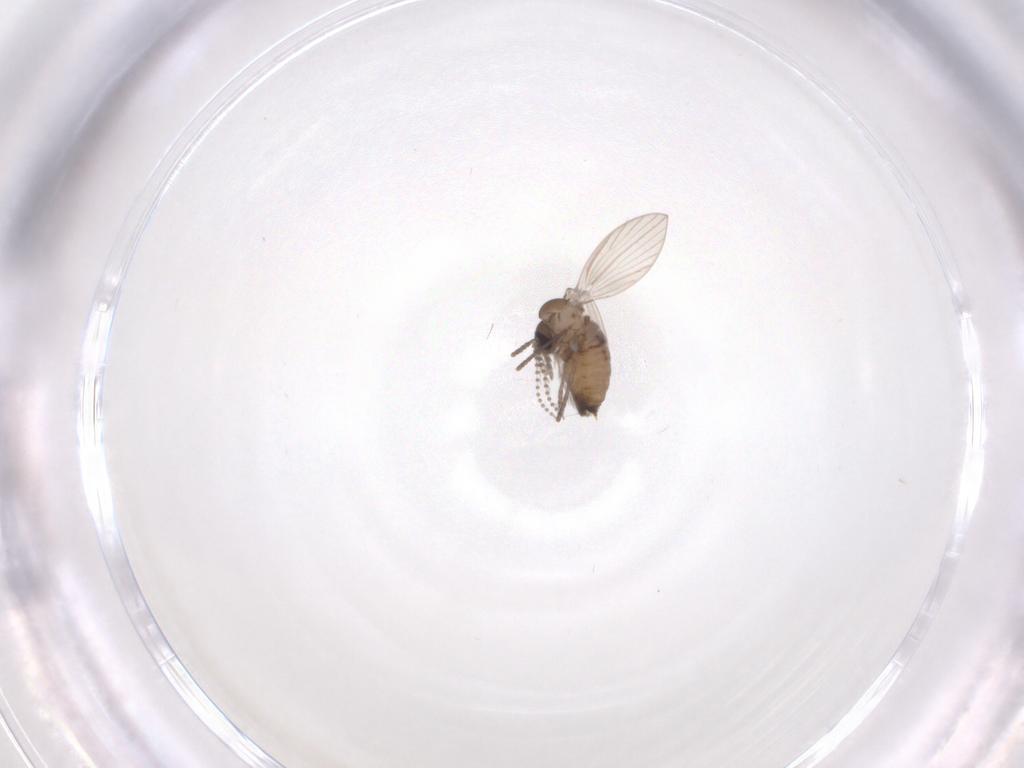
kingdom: Animalia
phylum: Arthropoda
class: Insecta
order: Diptera
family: Psychodidae
